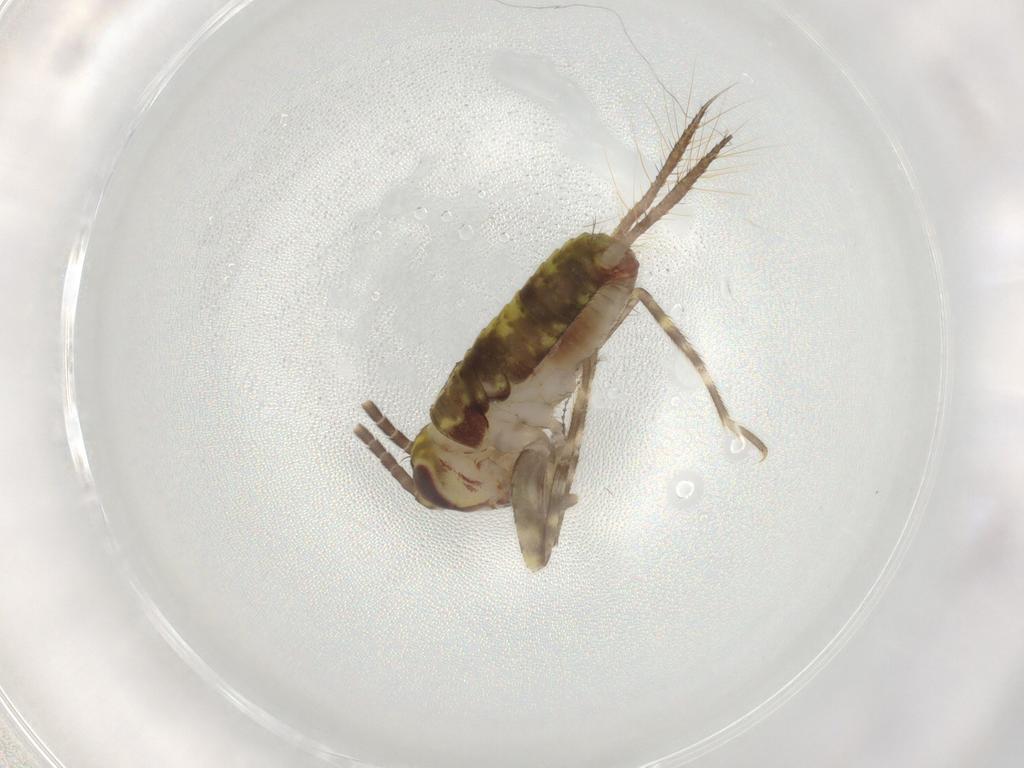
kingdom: Animalia
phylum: Arthropoda
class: Insecta
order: Orthoptera
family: Gryllidae
